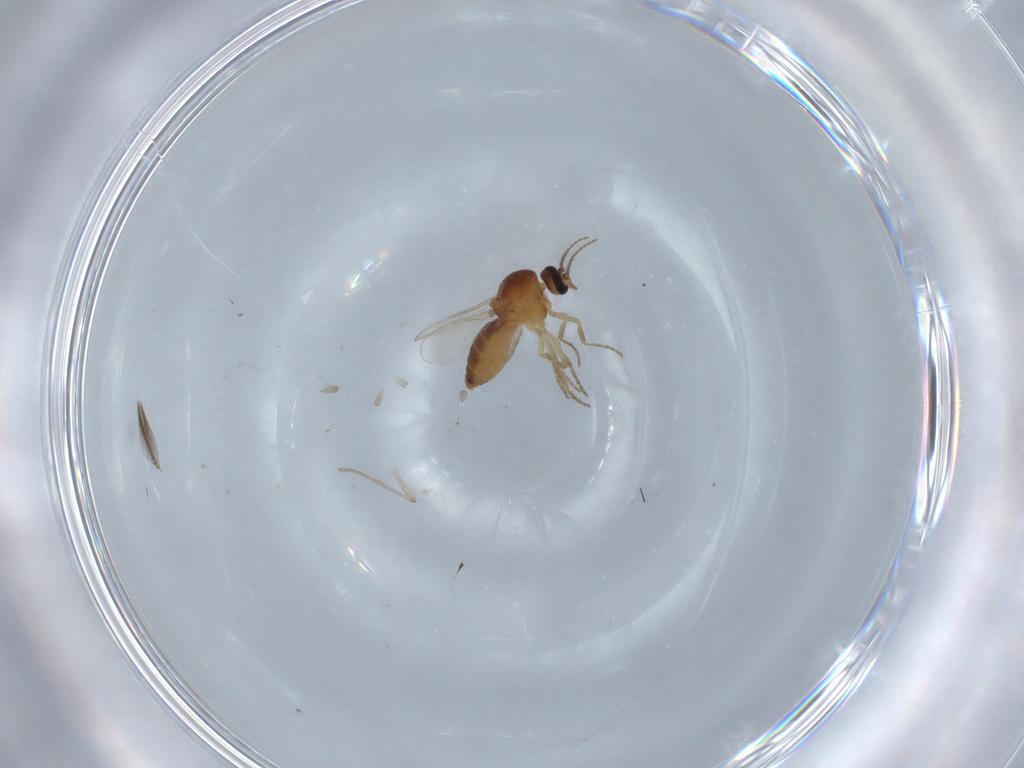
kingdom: Animalia
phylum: Arthropoda
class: Insecta
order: Diptera
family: Ceratopogonidae
